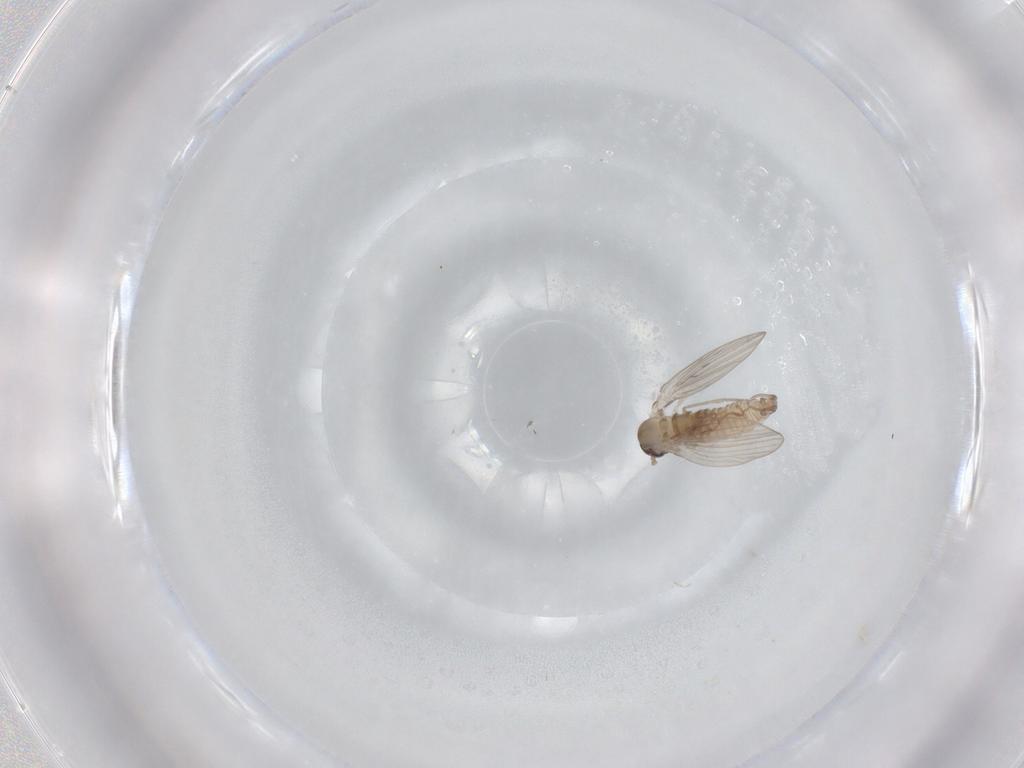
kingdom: Animalia
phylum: Arthropoda
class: Insecta
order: Diptera
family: Psychodidae
